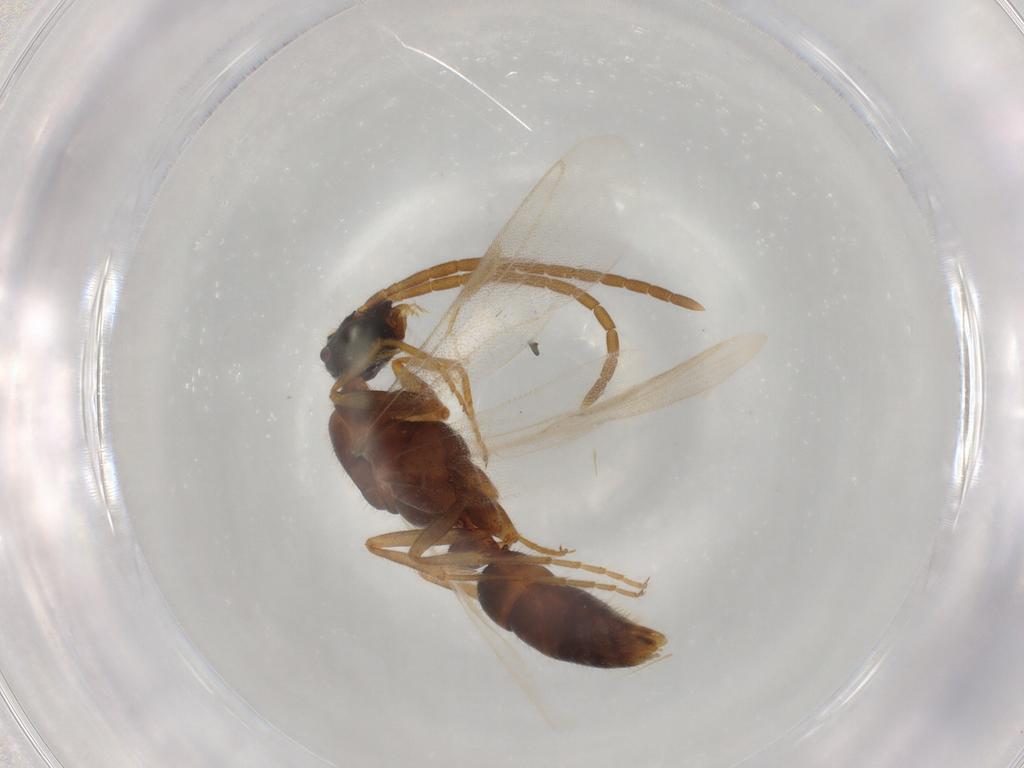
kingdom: Animalia
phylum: Arthropoda
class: Insecta
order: Hymenoptera
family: Formicidae
